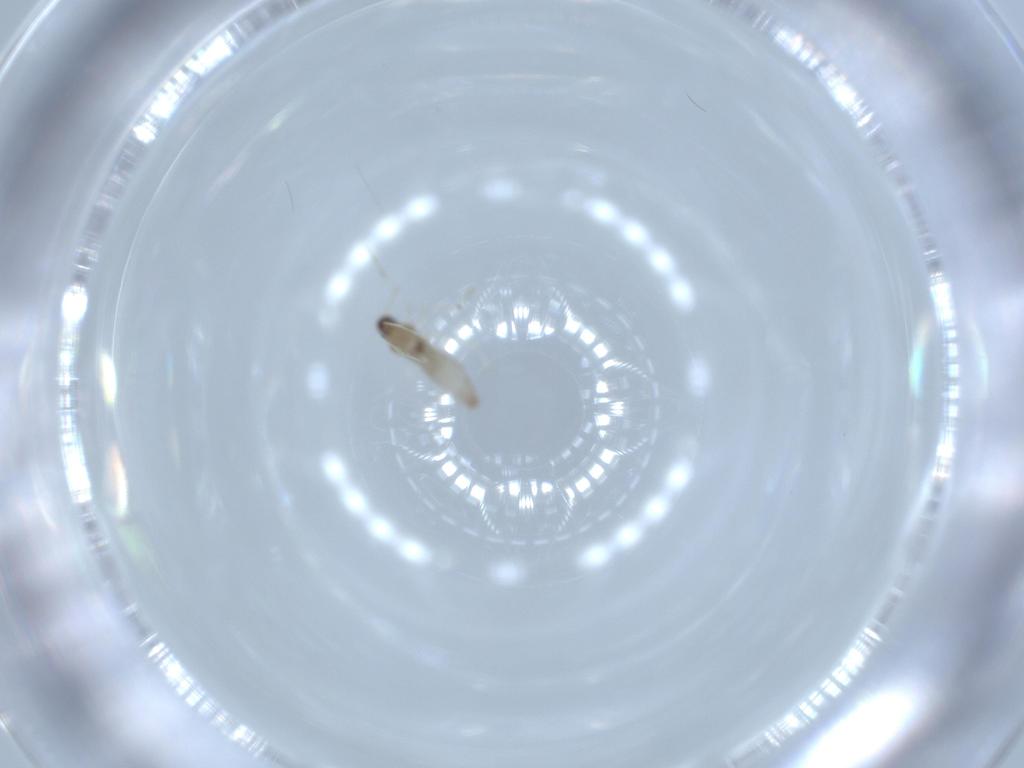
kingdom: Animalia
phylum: Arthropoda
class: Insecta
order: Diptera
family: Cecidomyiidae
